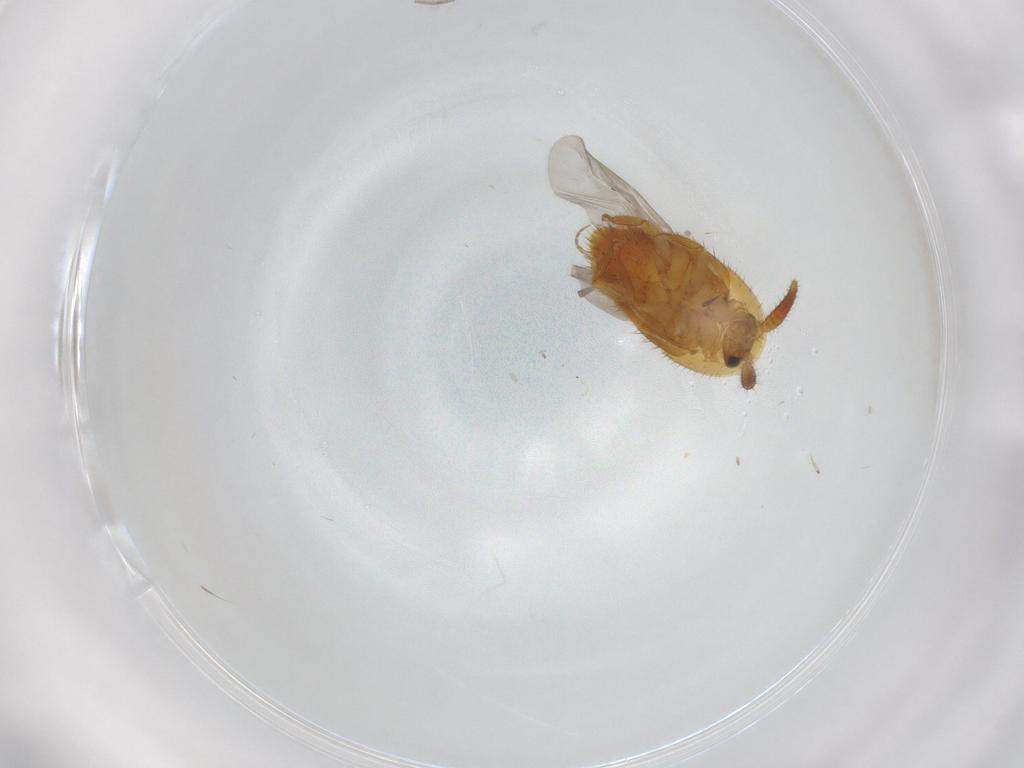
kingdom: Animalia
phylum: Arthropoda
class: Insecta
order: Coleoptera
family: Staphylinidae
